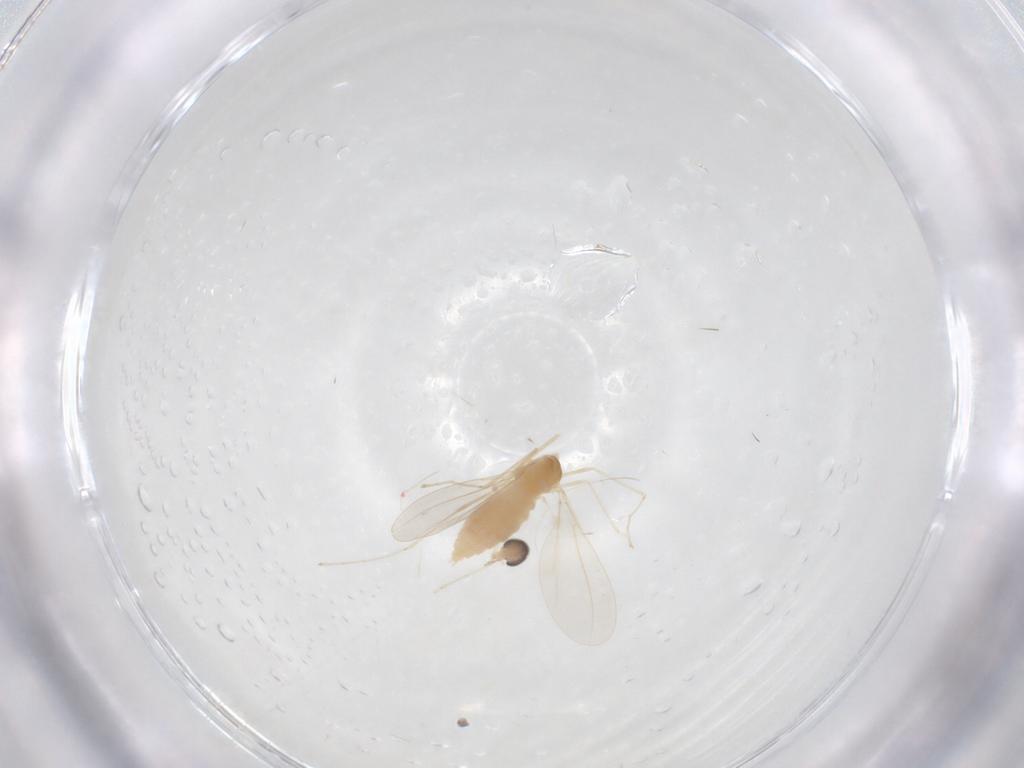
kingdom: Animalia
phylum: Arthropoda
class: Insecta
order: Diptera
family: Cecidomyiidae
